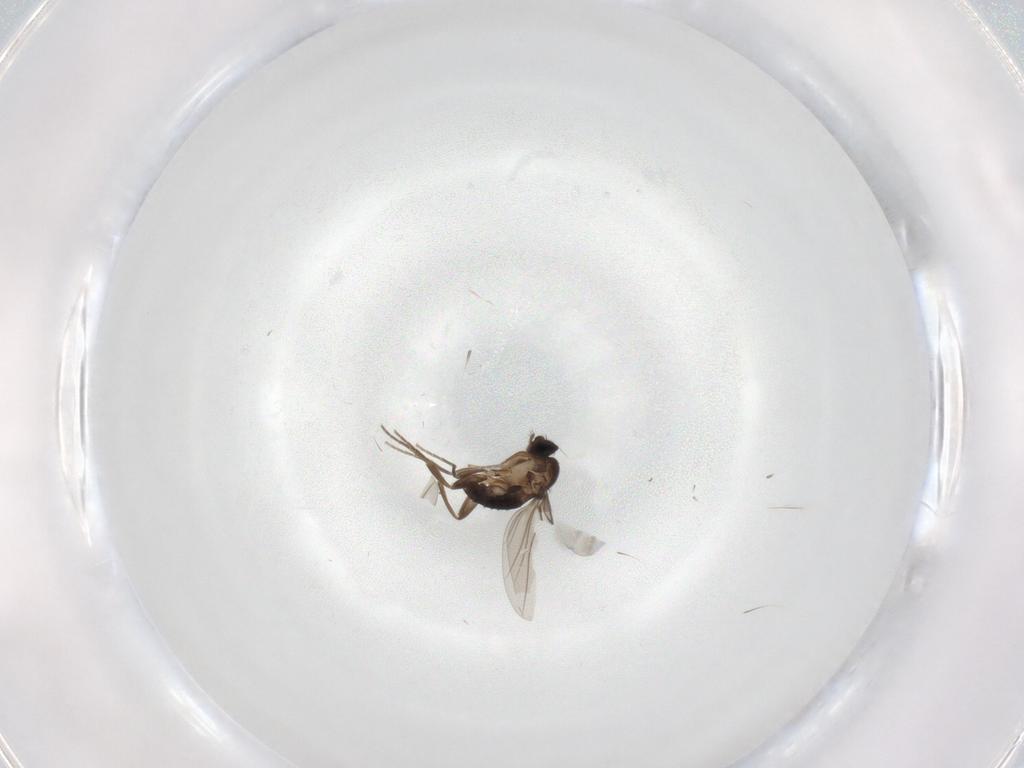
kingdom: Animalia
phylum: Arthropoda
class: Insecta
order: Diptera
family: Phoridae
